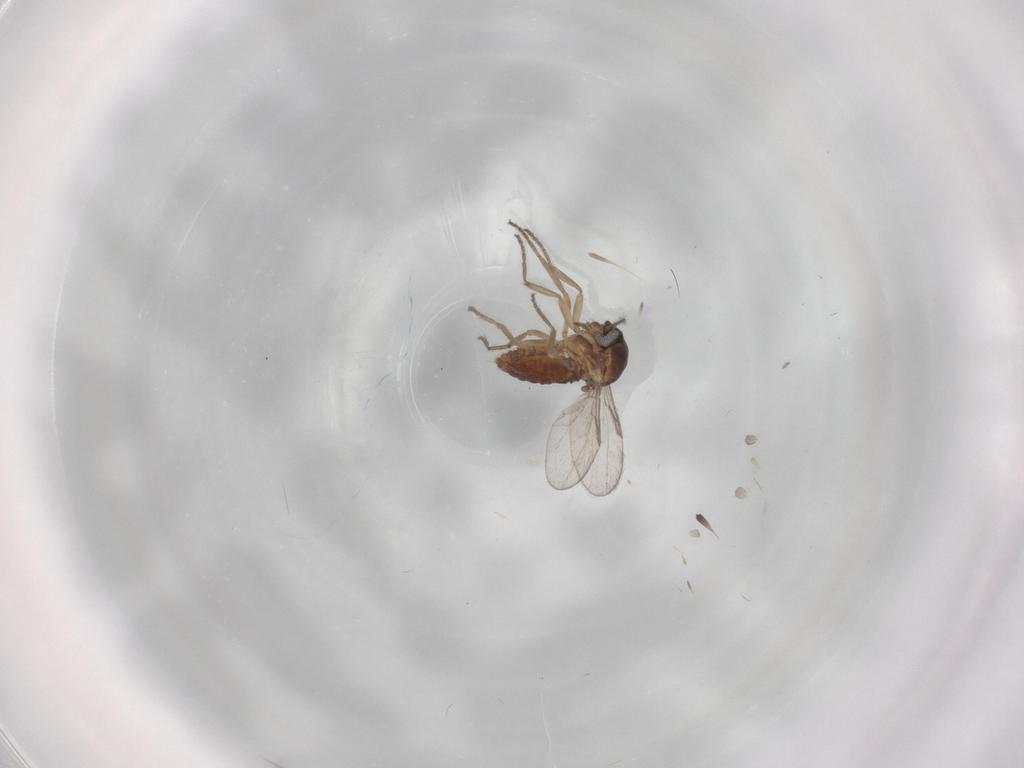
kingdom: Animalia
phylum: Arthropoda
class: Insecta
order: Diptera
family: Ceratopogonidae
